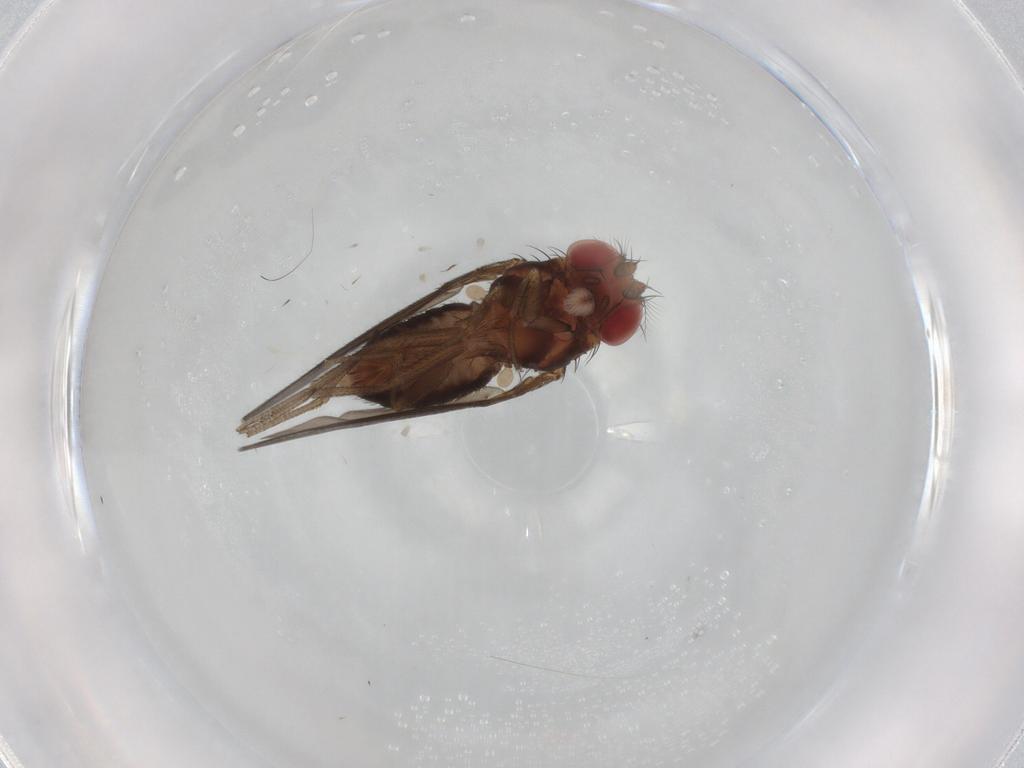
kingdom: Animalia
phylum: Arthropoda
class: Insecta
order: Diptera
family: Drosophilidae
